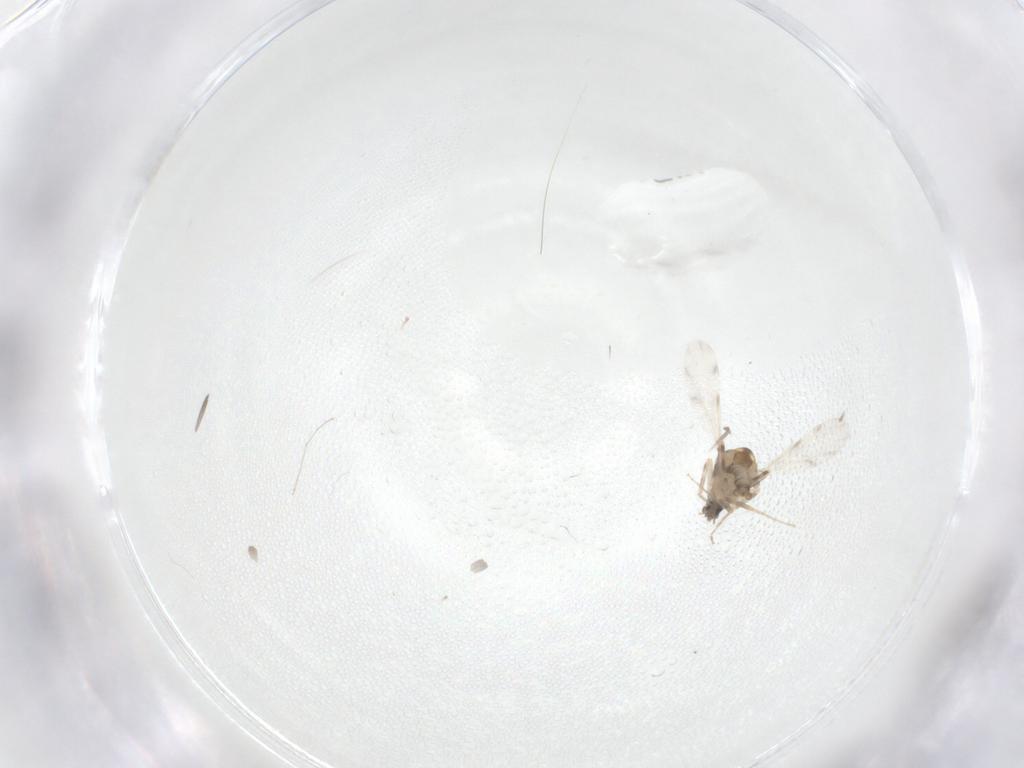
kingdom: Animalia
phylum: Arthropoda
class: Insecta
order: Diptera
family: Ceratopogonidae
